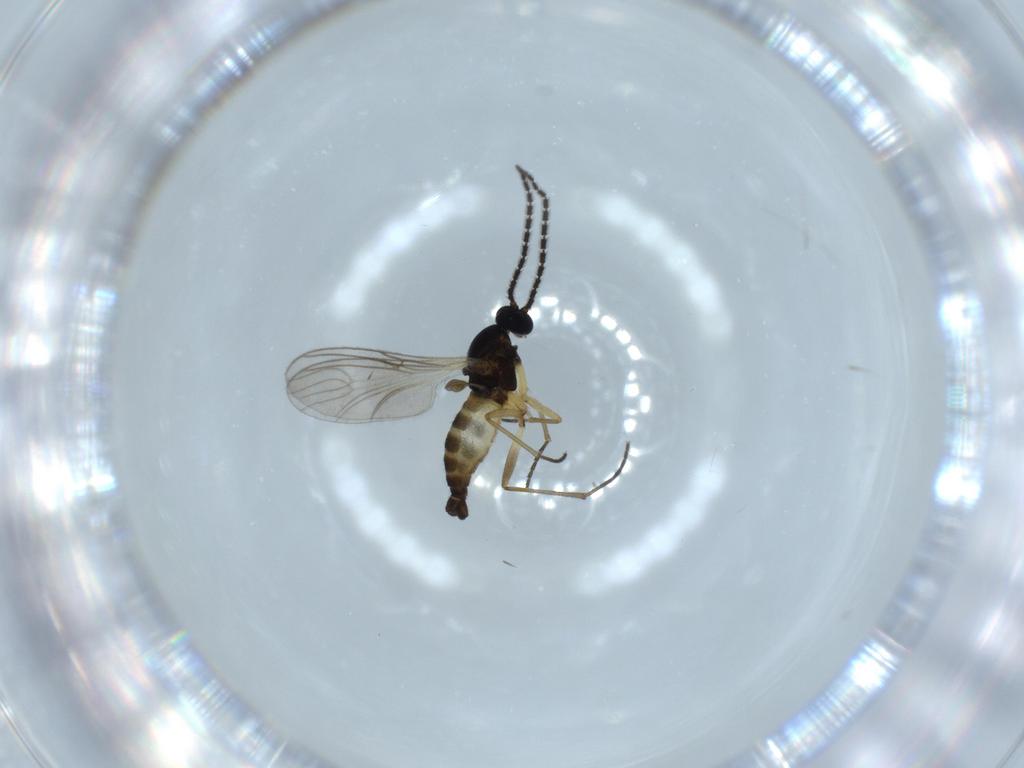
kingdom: Animalia
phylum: Arthropoda
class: Insecta
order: Diptera
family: Sciaridae
